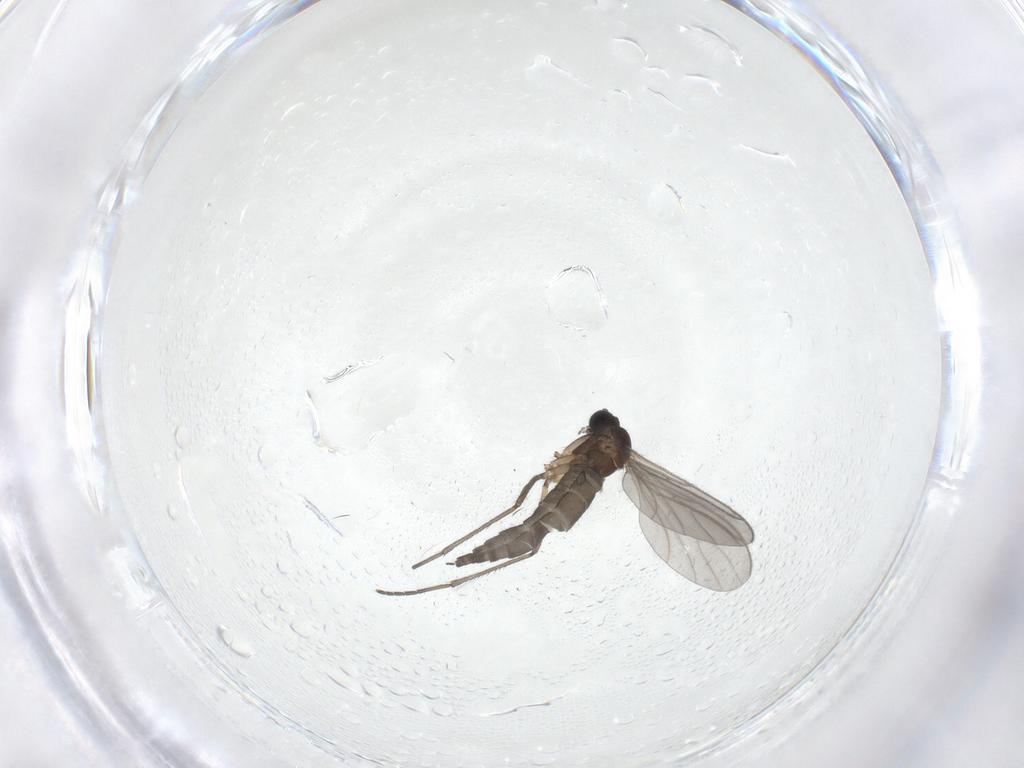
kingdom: Animalia
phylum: Arthropoda
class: Insecta
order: Diptera
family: Sciaridae
